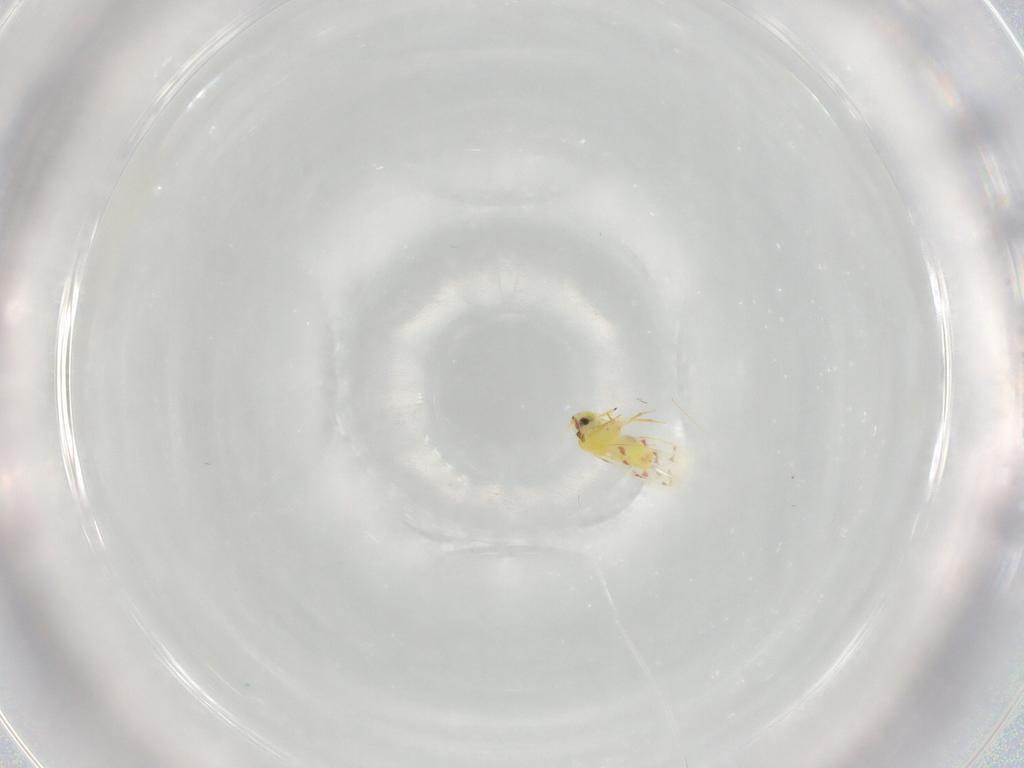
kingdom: Animalia
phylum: Arthropoda
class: Insecta
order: Hemiptera
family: Aleyrodidae
